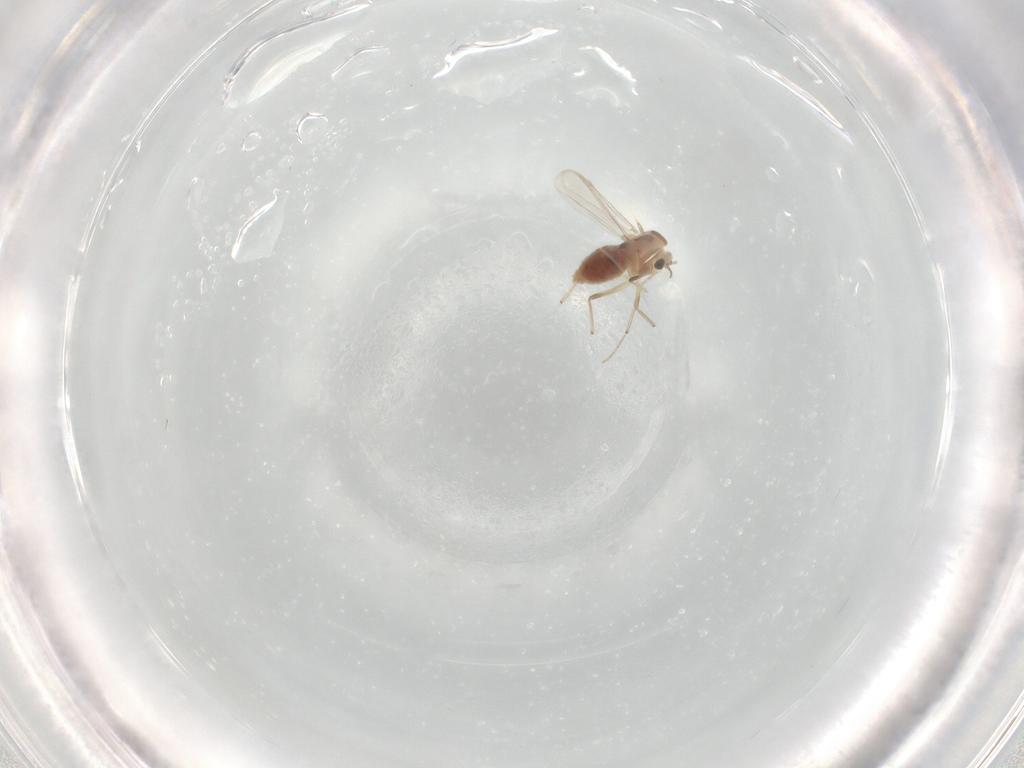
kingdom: Animalia
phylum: Arthropoda
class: Insecta
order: Diptera
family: Chironomidae
